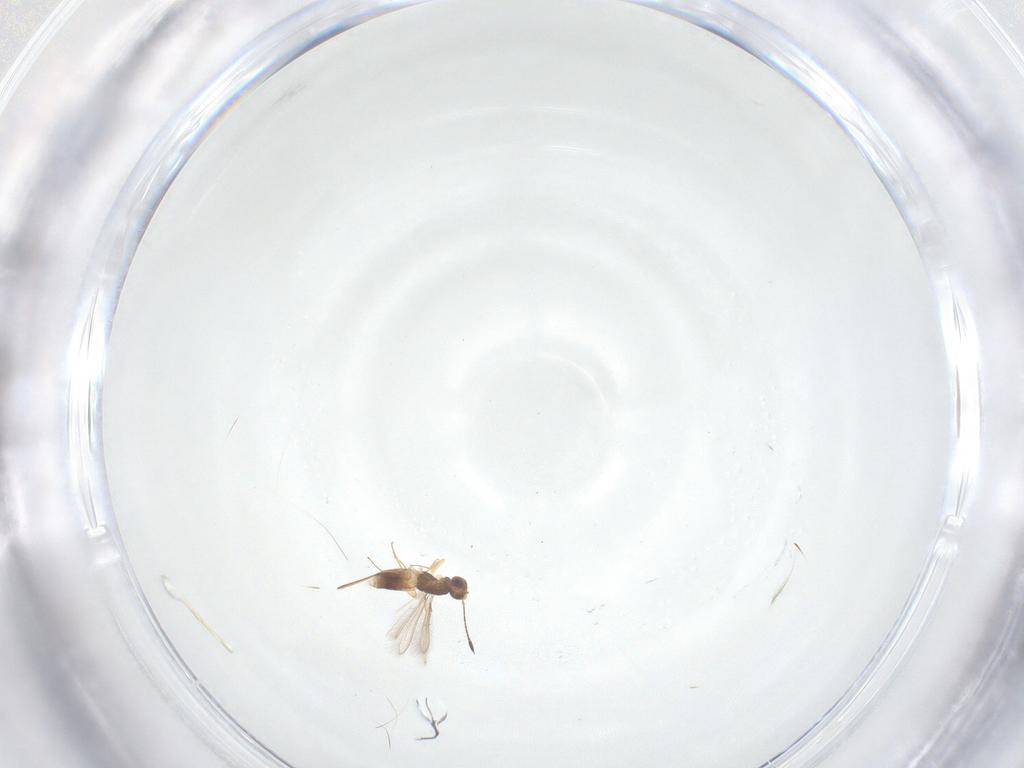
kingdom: Animalia
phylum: Arthropoda
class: Insecta
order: Hymenoptera
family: Mymaridae
